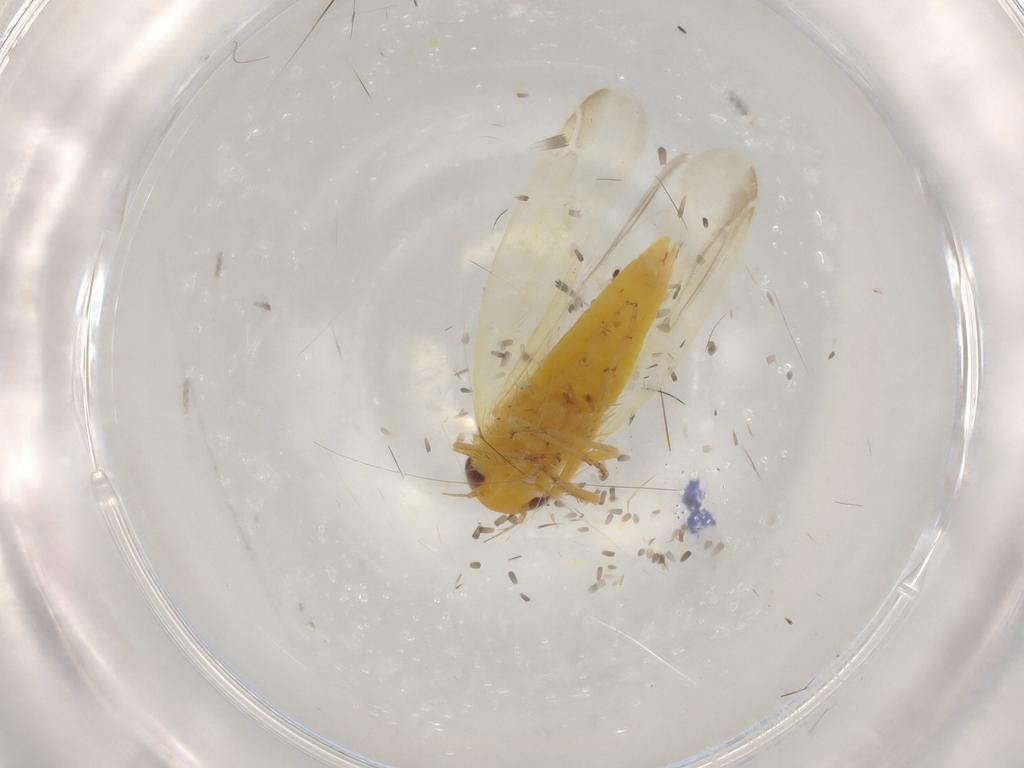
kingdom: Animalia
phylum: Arthropoda
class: Insecta
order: Hemiptera
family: Cicadellidae
